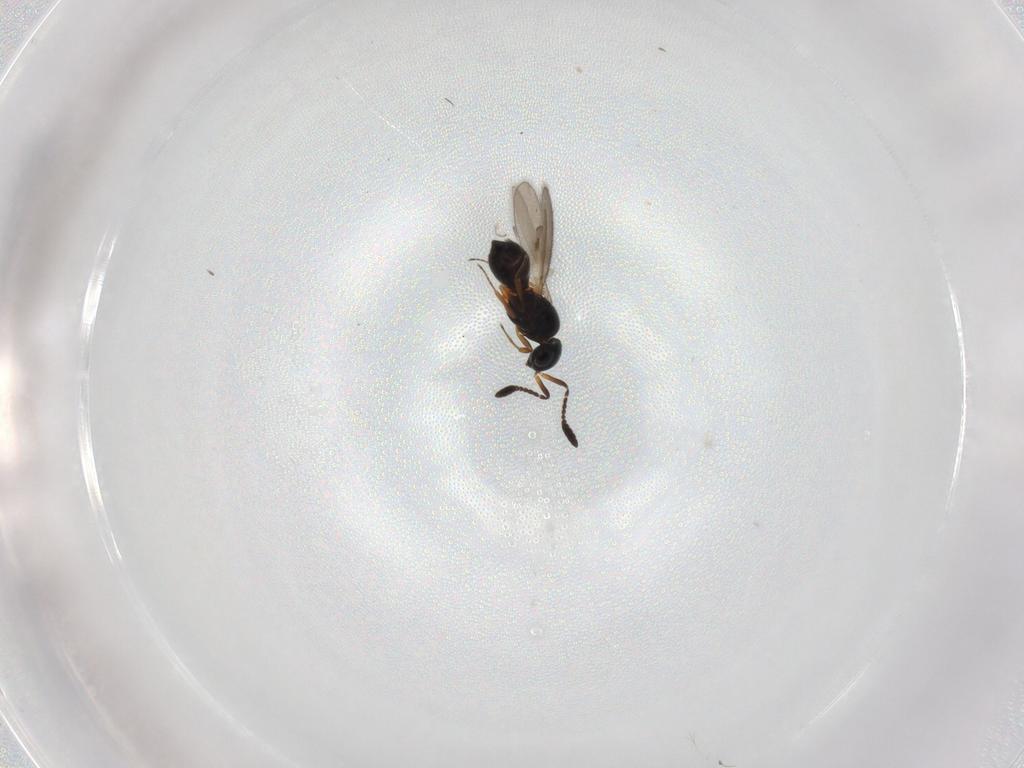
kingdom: Animalia
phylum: Arthropoda
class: Insecta
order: Hymenoptera
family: Scelionidae
